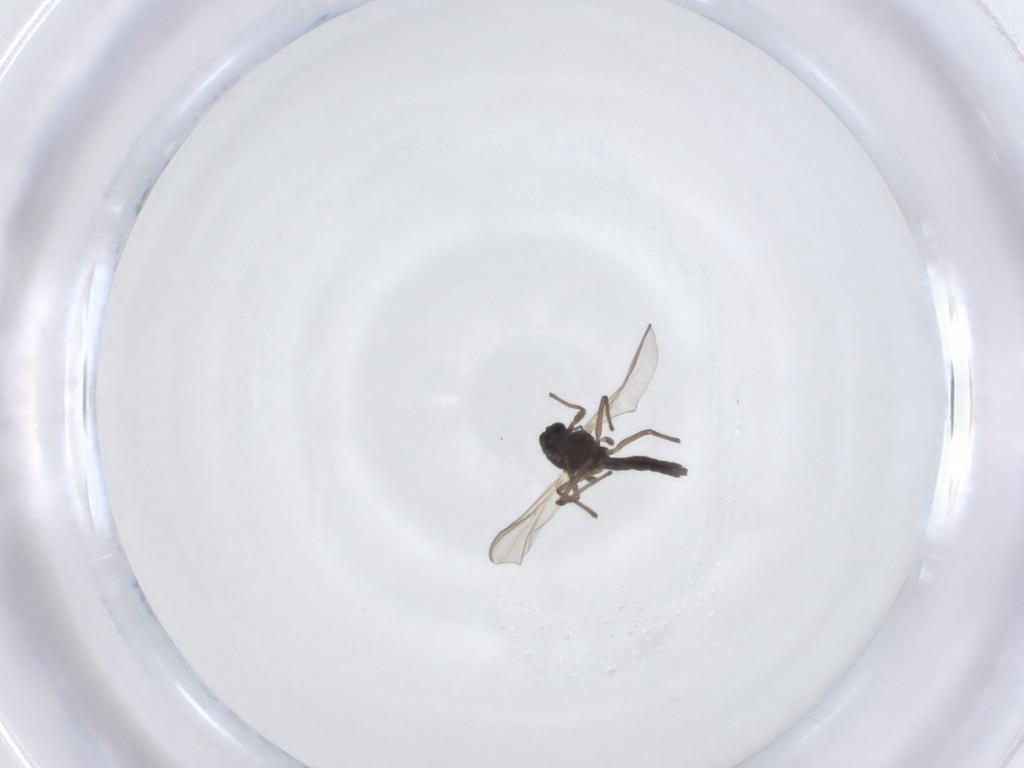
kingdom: Animalia
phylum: Arthropoda
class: Insecta
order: Diptera
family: Chironomidae
